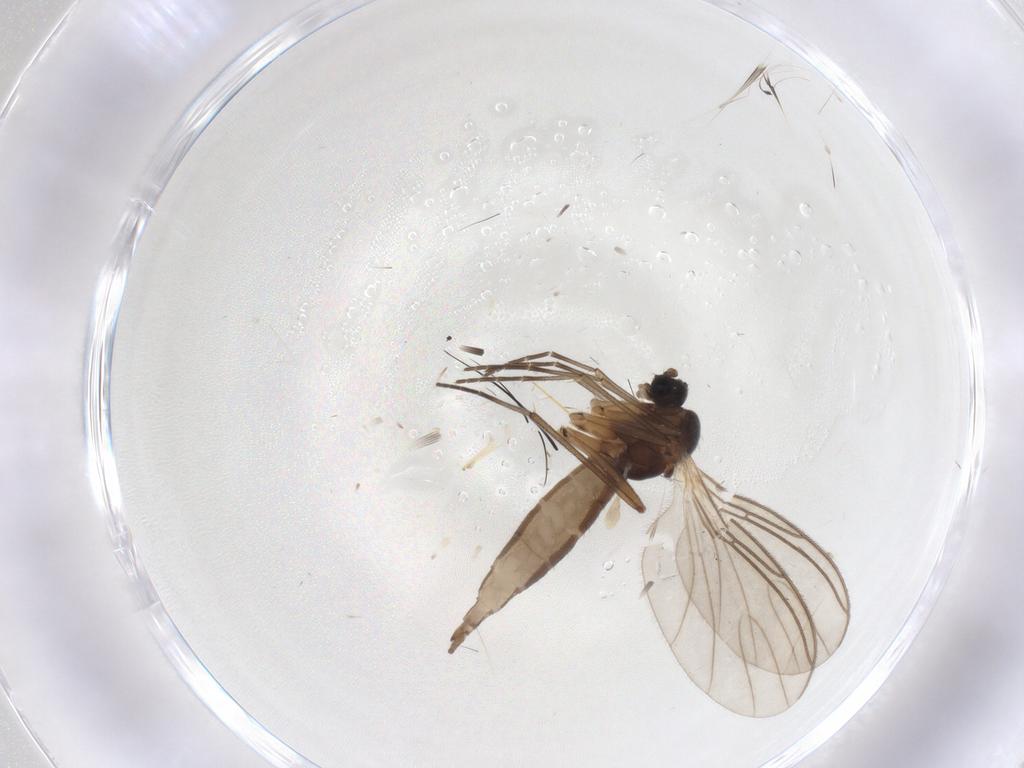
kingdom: Animalia
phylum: Arthropoda
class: Insecta
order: Diptera
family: Sciaridae
